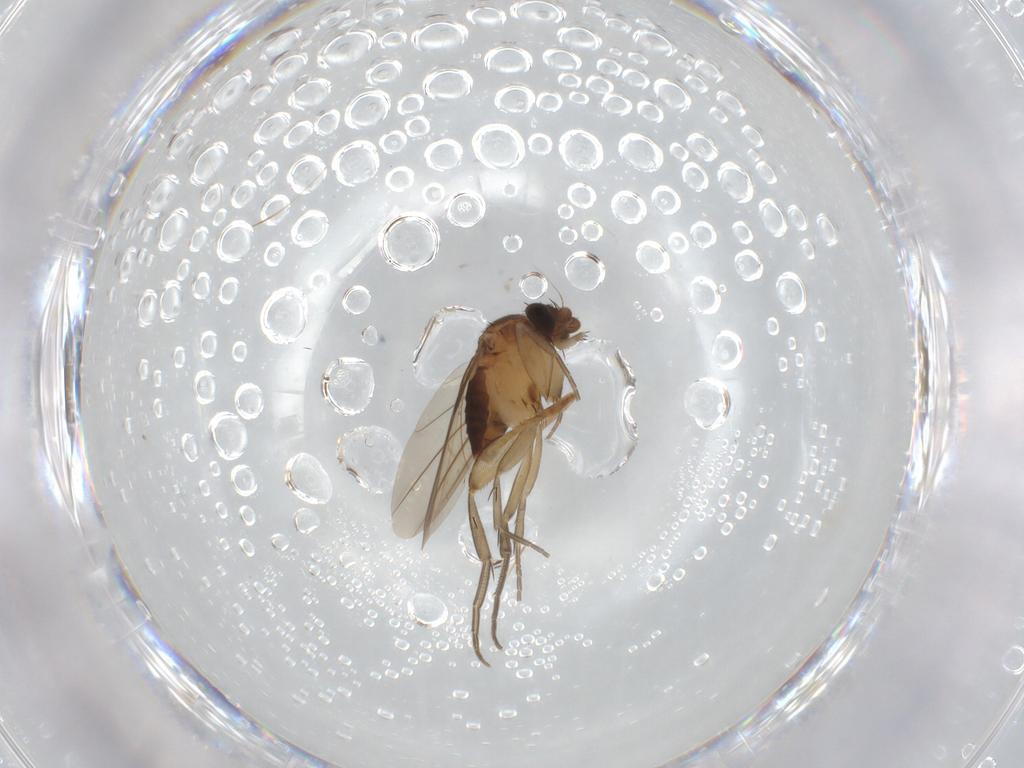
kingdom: Animalia
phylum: Arthropoda
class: Insecta
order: Diptera
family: Phoridae
